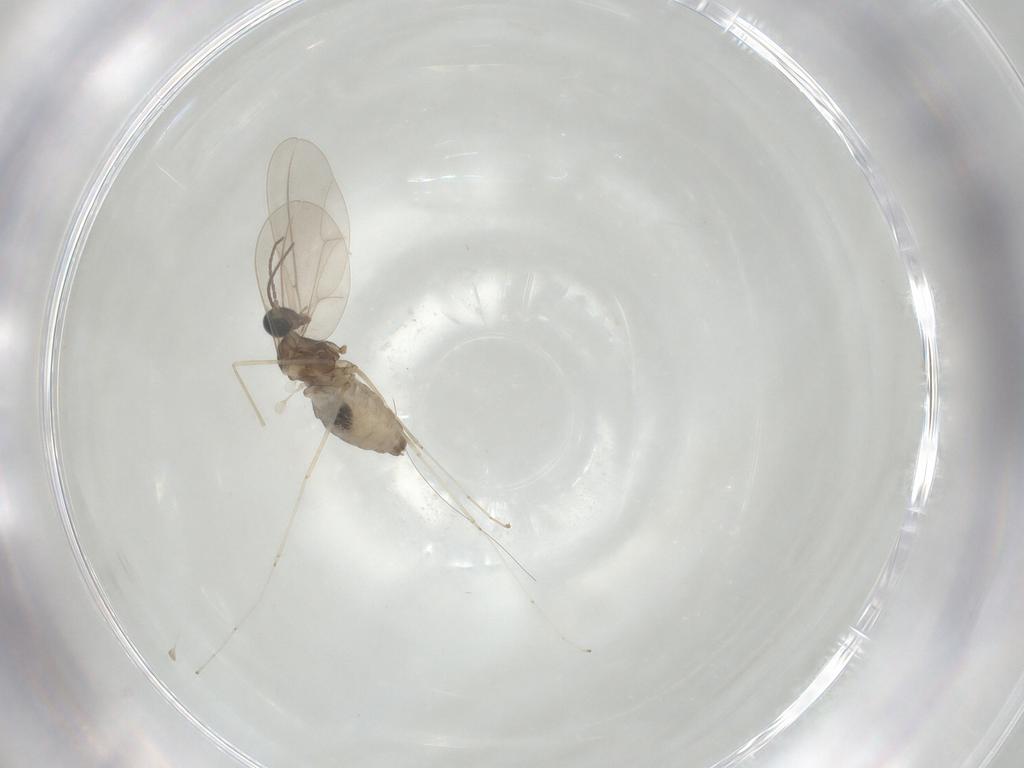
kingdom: Animalia
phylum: Arthropoda
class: Insecta
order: Diptera
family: Cecidomyiidae
